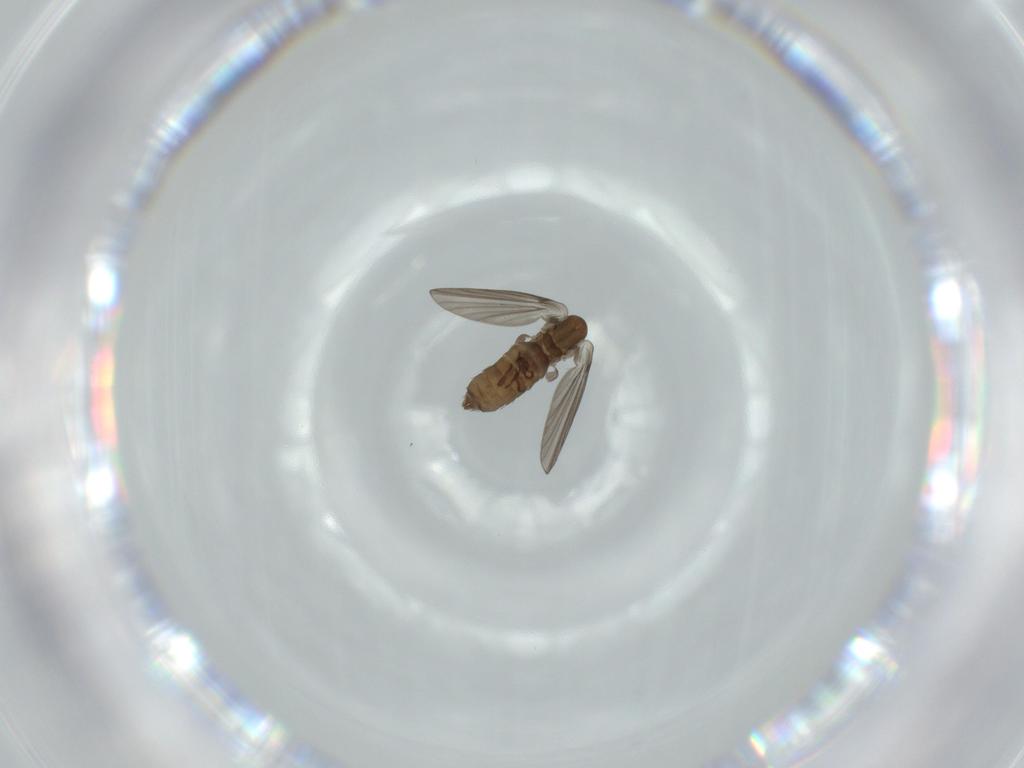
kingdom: Animalia
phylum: Arthropoda
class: Insecta
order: Diptera
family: Psychodidae
